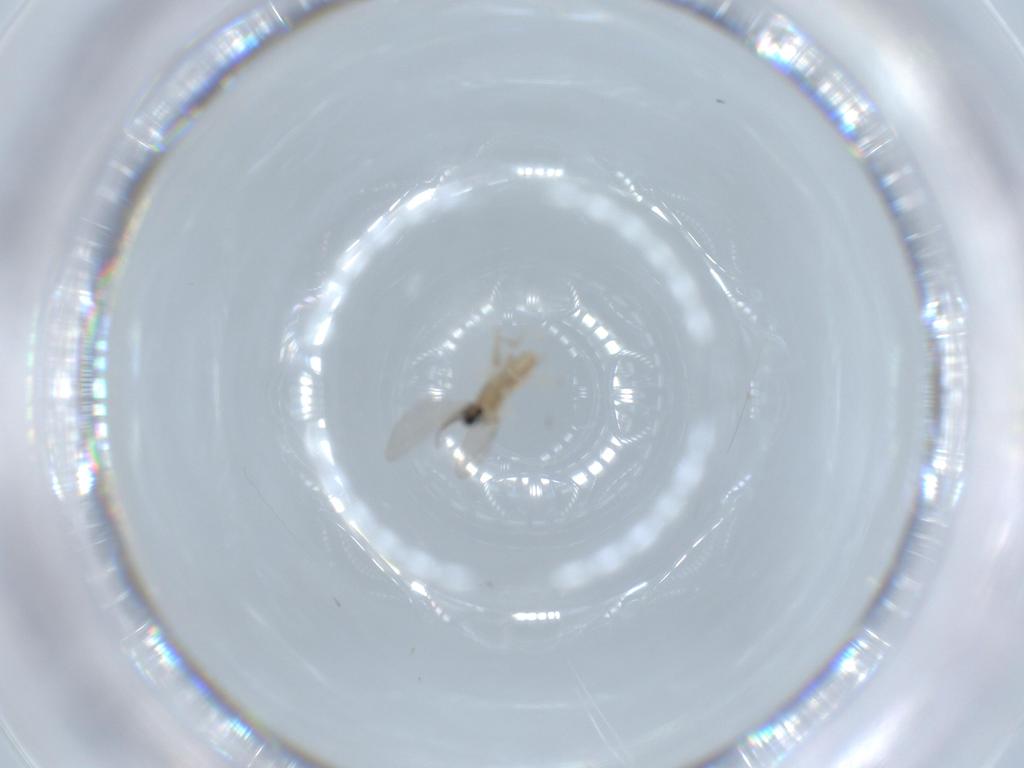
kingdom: Animalia
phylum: Arthropoda
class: Insecta
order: Diptera
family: Cecidomyiidae
